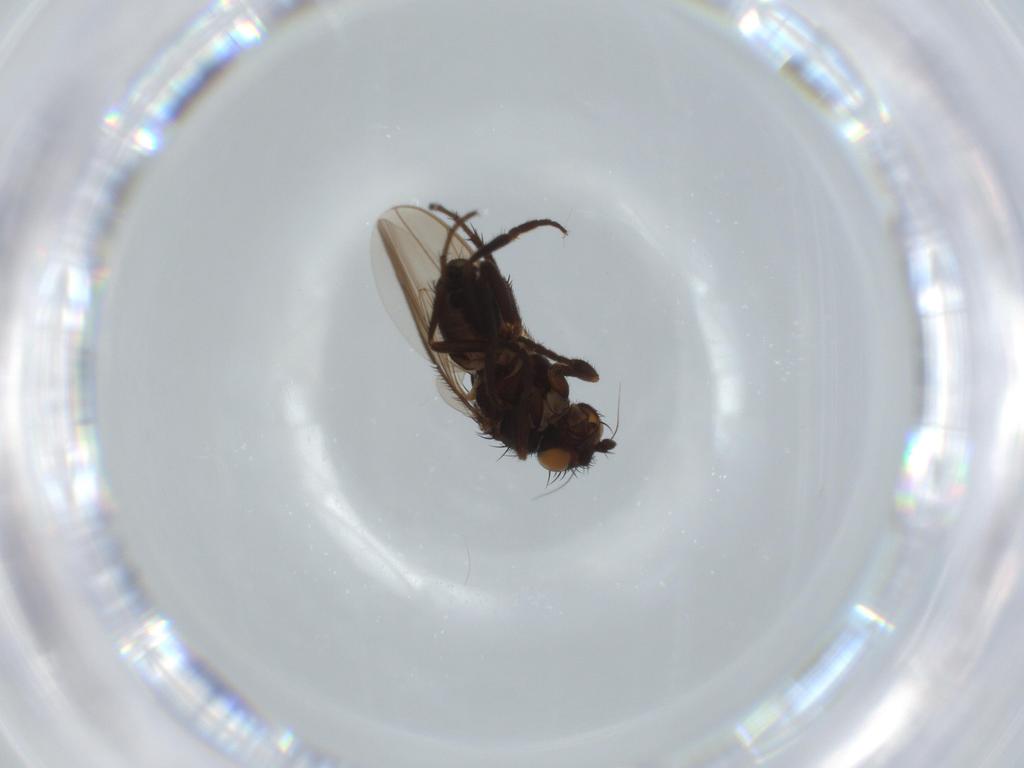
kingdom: Animalia
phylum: Arthropoda
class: Insecta
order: Diptera
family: Sphaeroceridae
